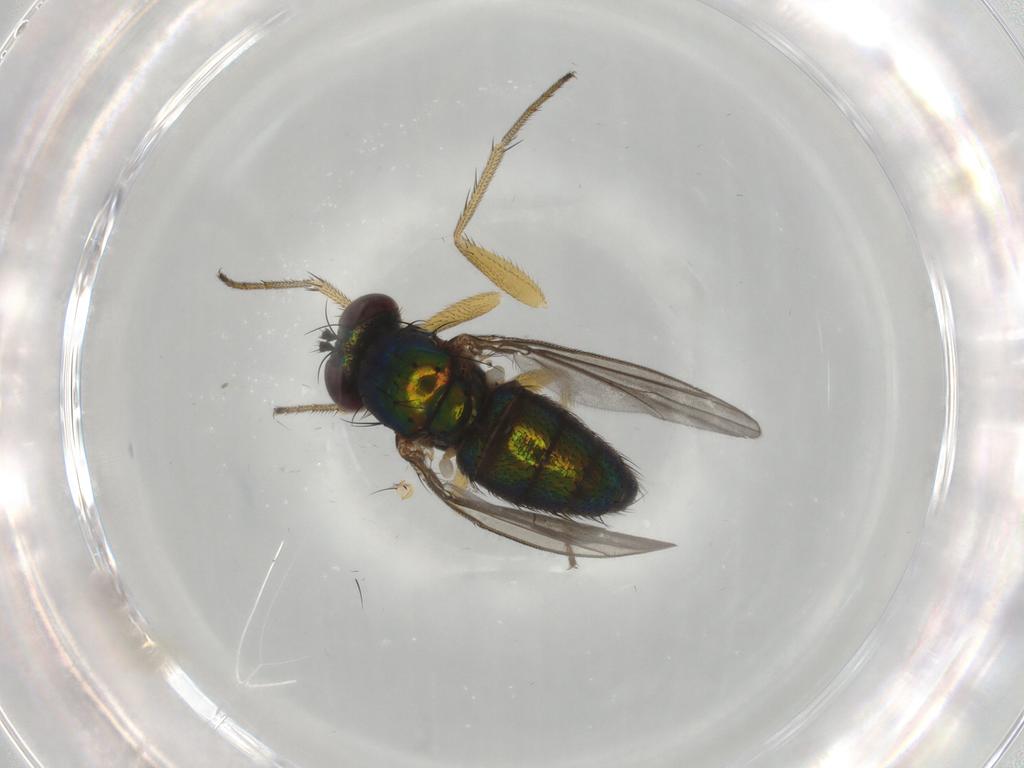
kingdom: Animalia
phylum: Arthropoda
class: Insecta
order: Diptera
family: Dolichopodidae
